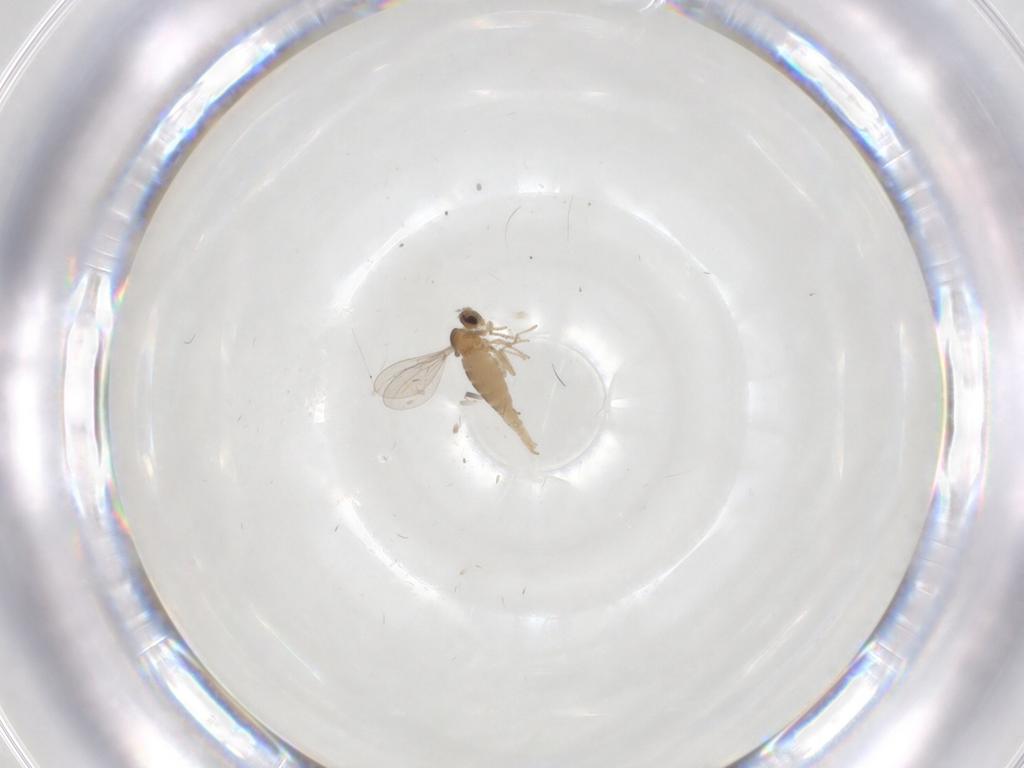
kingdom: Animalia
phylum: Arthropoda
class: Insecta
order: Diptera
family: Cecidomyiidae
